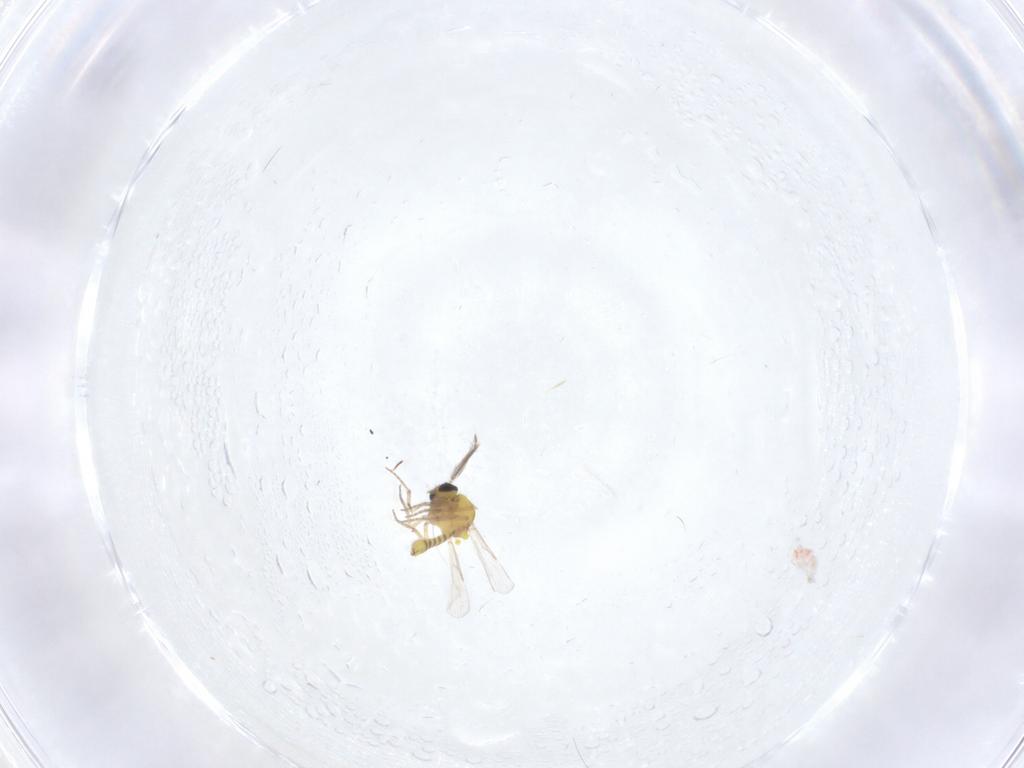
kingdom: Animalia
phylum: Arthropoda
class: Insecta
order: Diptera
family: Ceratopogonidae
